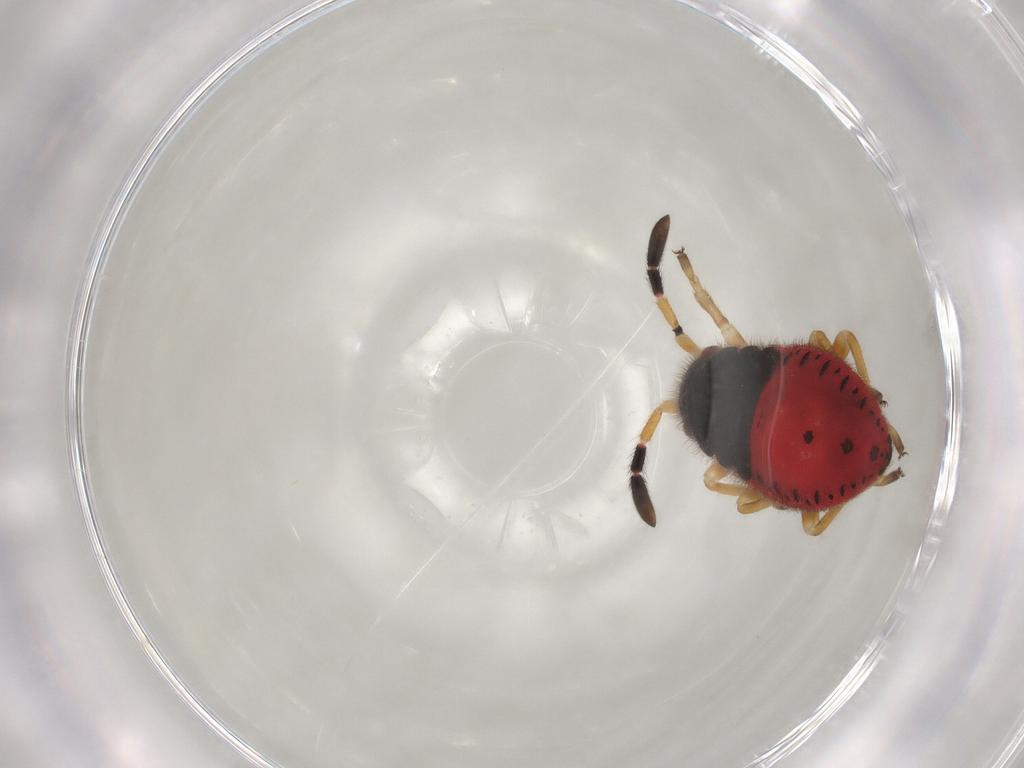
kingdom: Animalia
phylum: Arthropoda
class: Insecta
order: Hemiptera
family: Largidae
